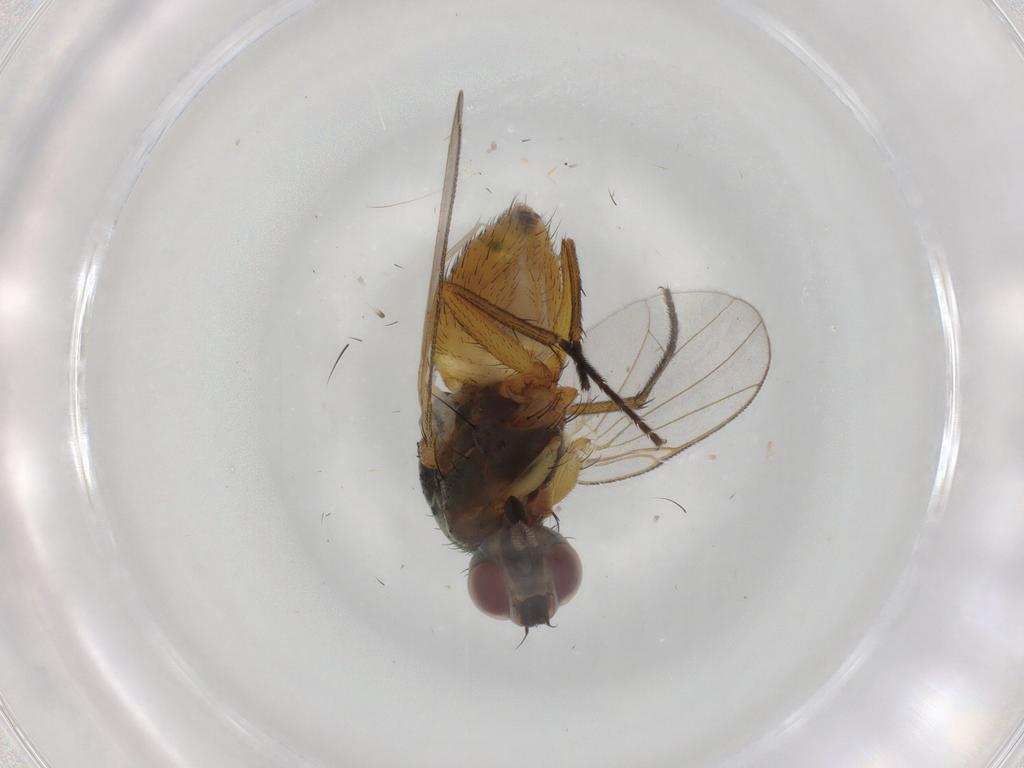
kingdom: Animalia
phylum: Arthropoda
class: Insecta
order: Diptera
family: Muscidae
